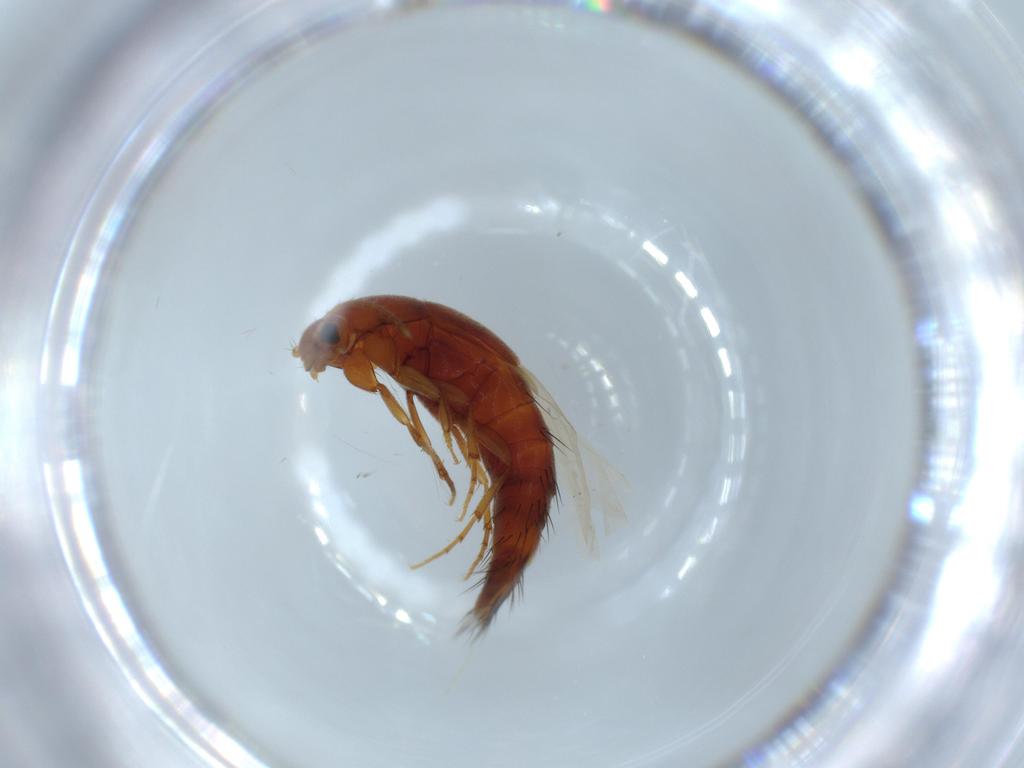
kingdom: Animalia
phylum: Arthropoda
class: Insecta
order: Coleoptera
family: Staphylinidae
